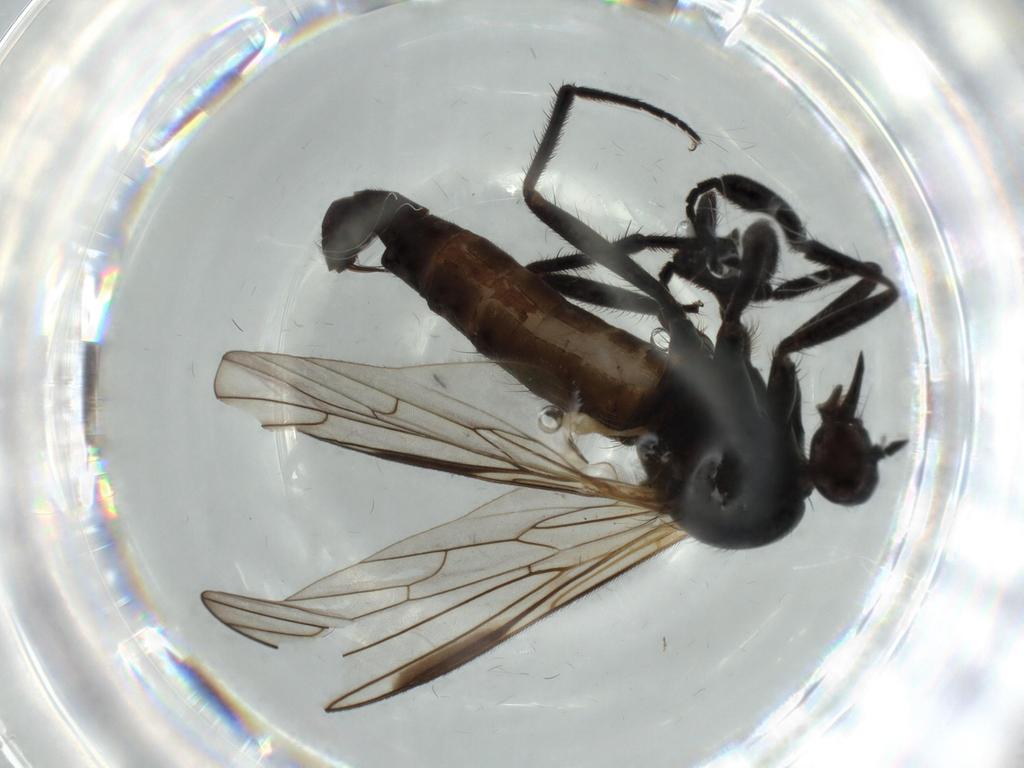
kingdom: Animalia
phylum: Arthropoda
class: Insecta
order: Diptera
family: Empididae
